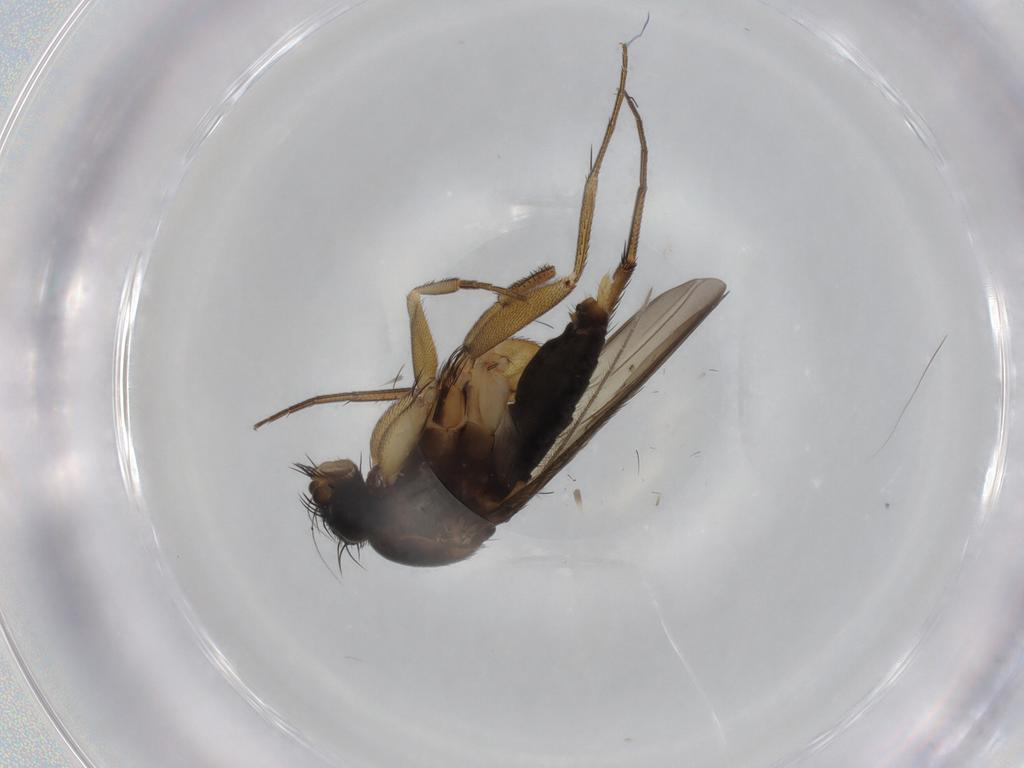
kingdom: Animalia
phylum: Arthropoda
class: Insecta
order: Diptera
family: Phoridae
